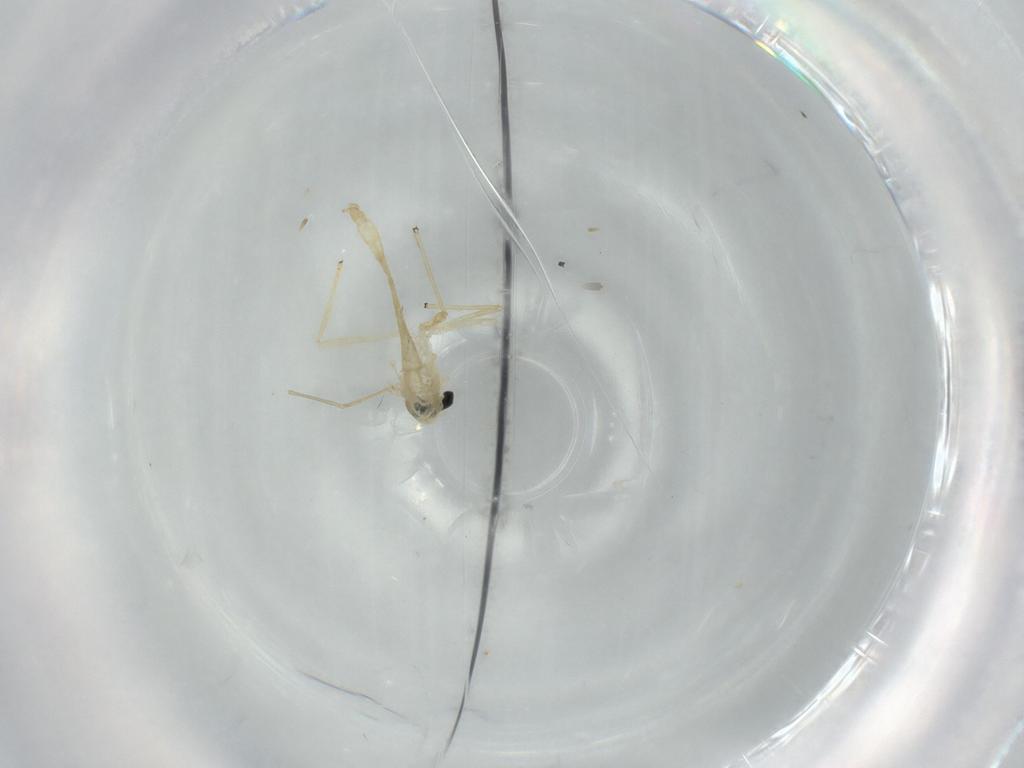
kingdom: Animalia
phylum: Arthropoda
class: Insecta
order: Diptera
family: Chironomidae
